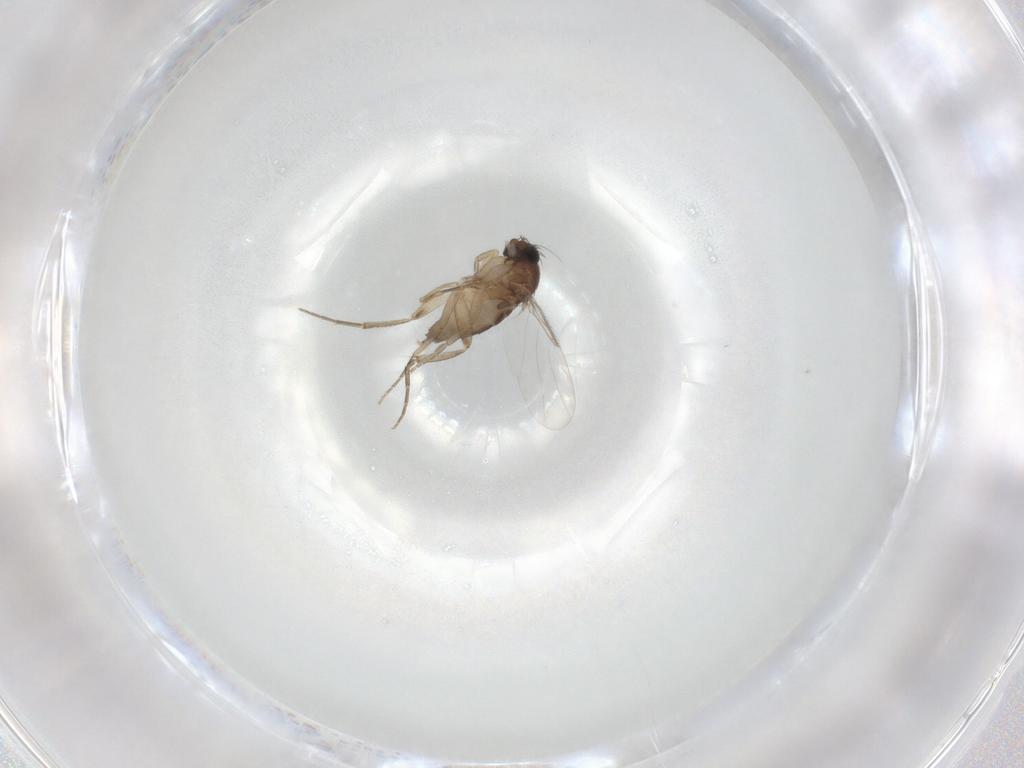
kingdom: Animalia
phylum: Arthropoda
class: Insecta
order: Diptera
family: Phoridae
